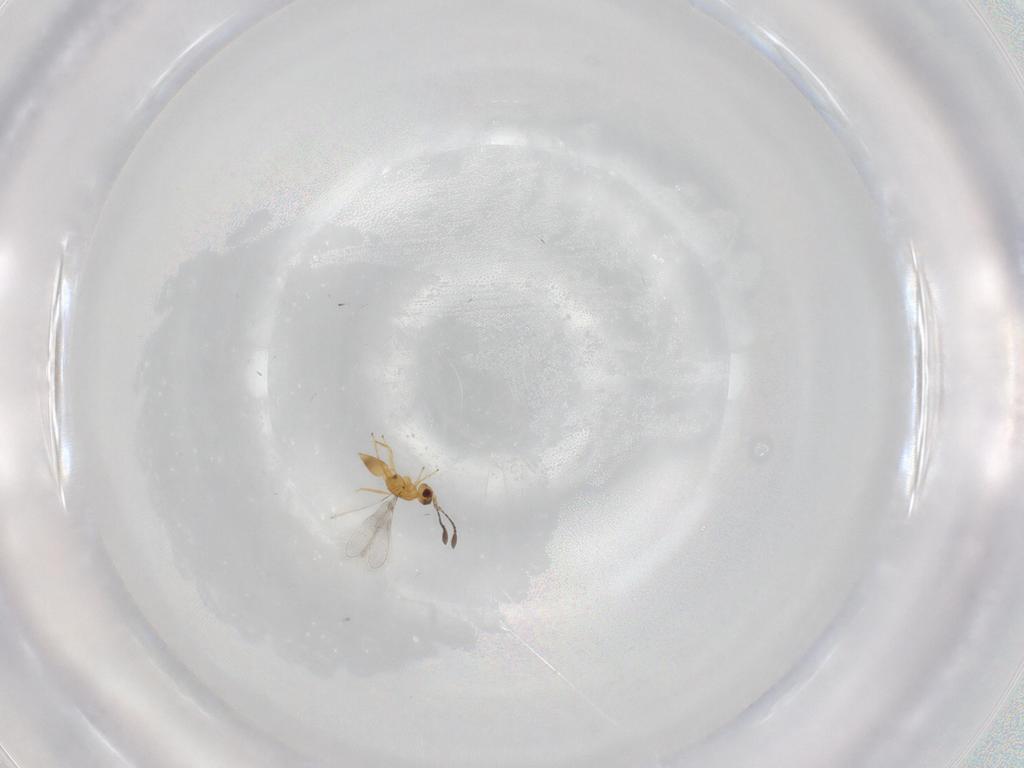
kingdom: Animalia
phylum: Arthropoda
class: Insecta
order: Hymenoptera
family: Mymaridae
